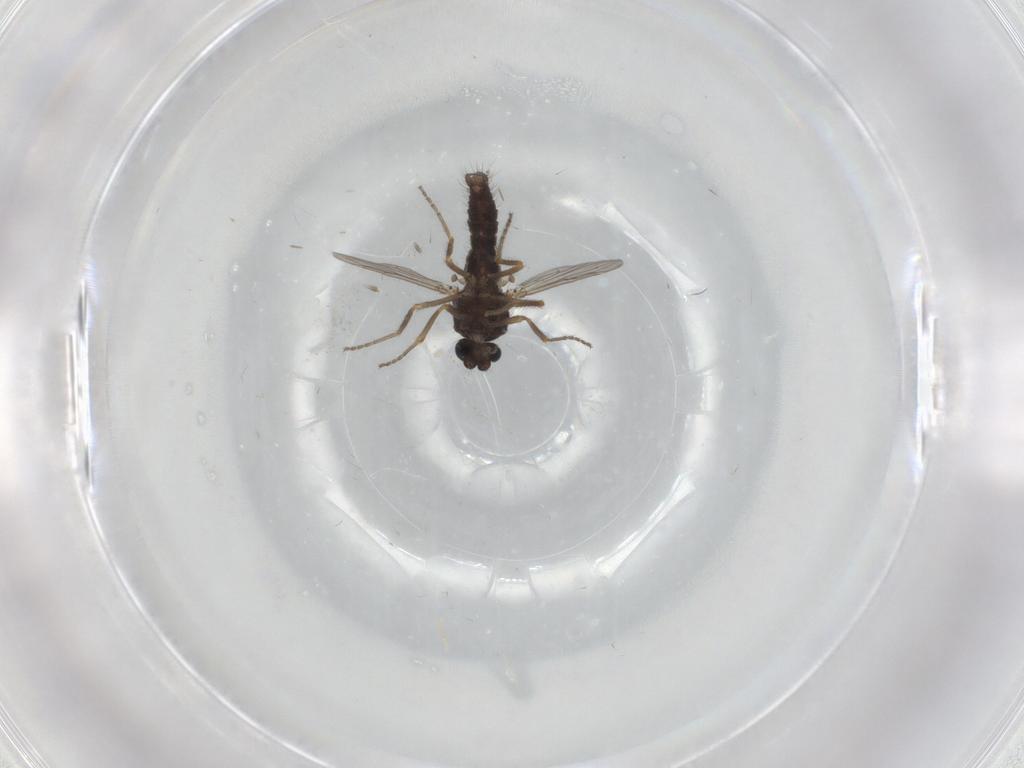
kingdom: Animalia
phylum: Arthropoda
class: Insecta
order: Diptera
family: Ceratopogonidae
